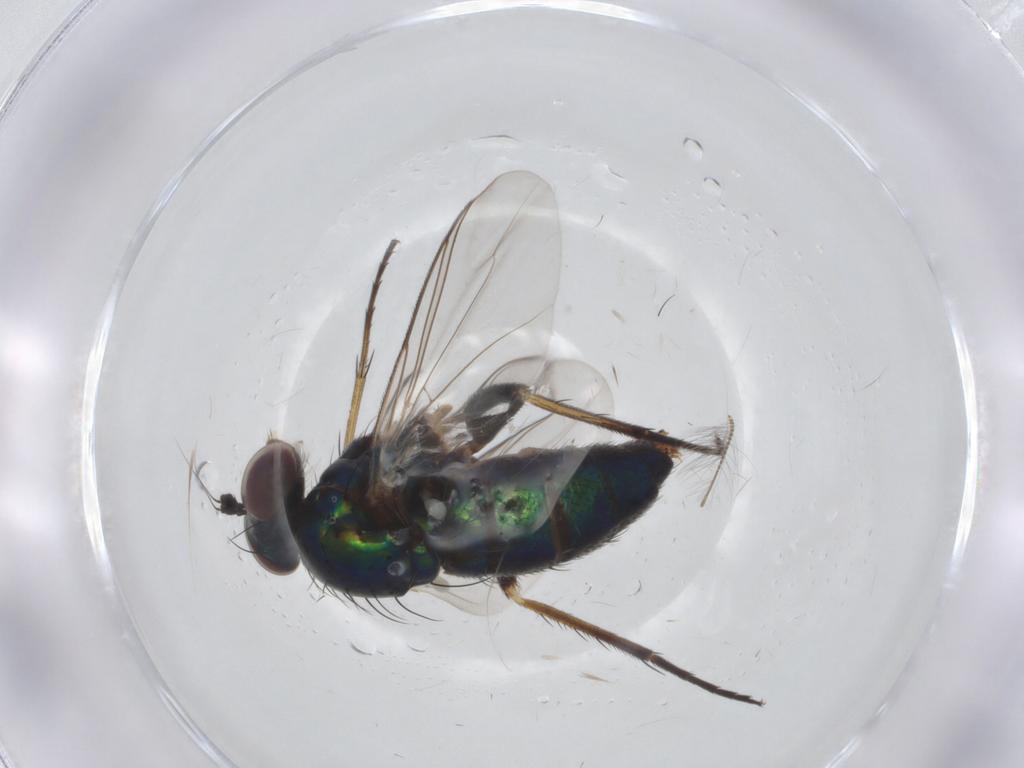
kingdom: Animalia
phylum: Arthropoda
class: Insecta
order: Diptera
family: Dolichopodidae
